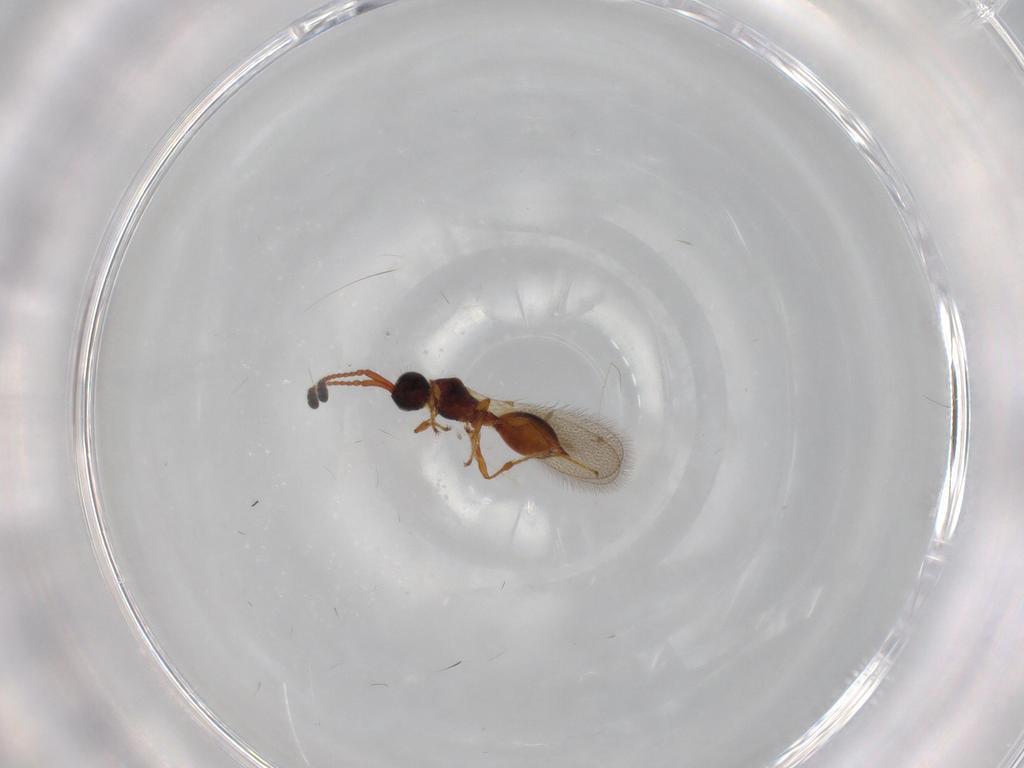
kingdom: Animalia
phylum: Arthropoda
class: Insecta
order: Hymenoptera
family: Diapriidae
